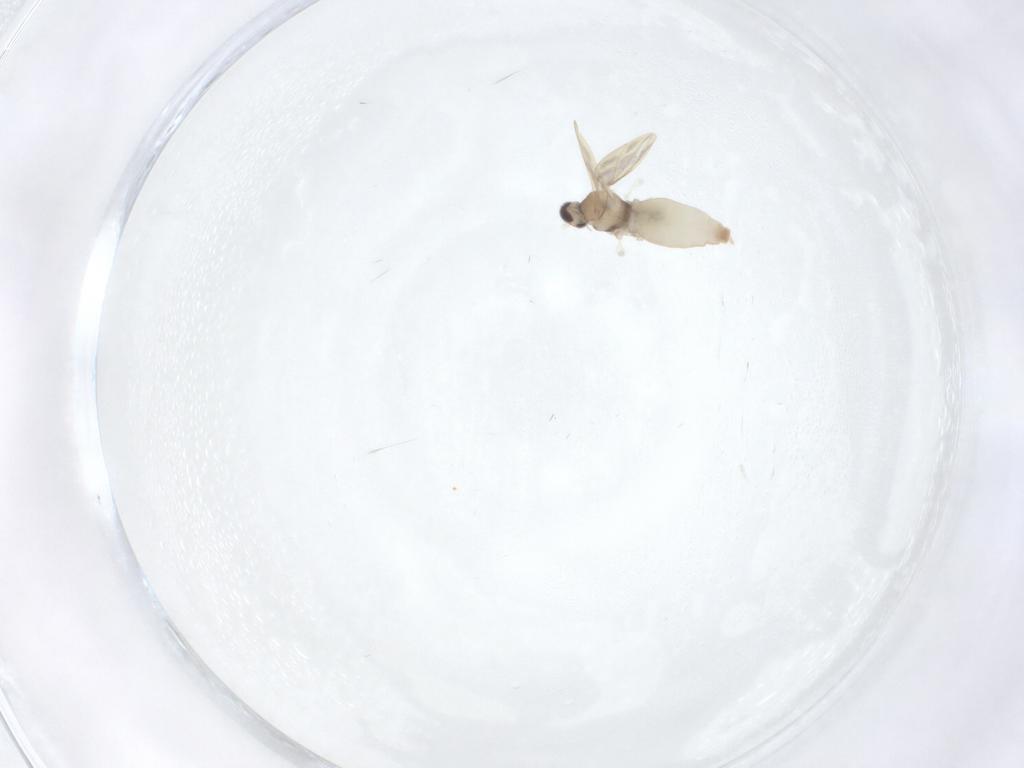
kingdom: Animalia
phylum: Arthropoda
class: Insecta
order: Diptera
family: Cecidomyiidae
